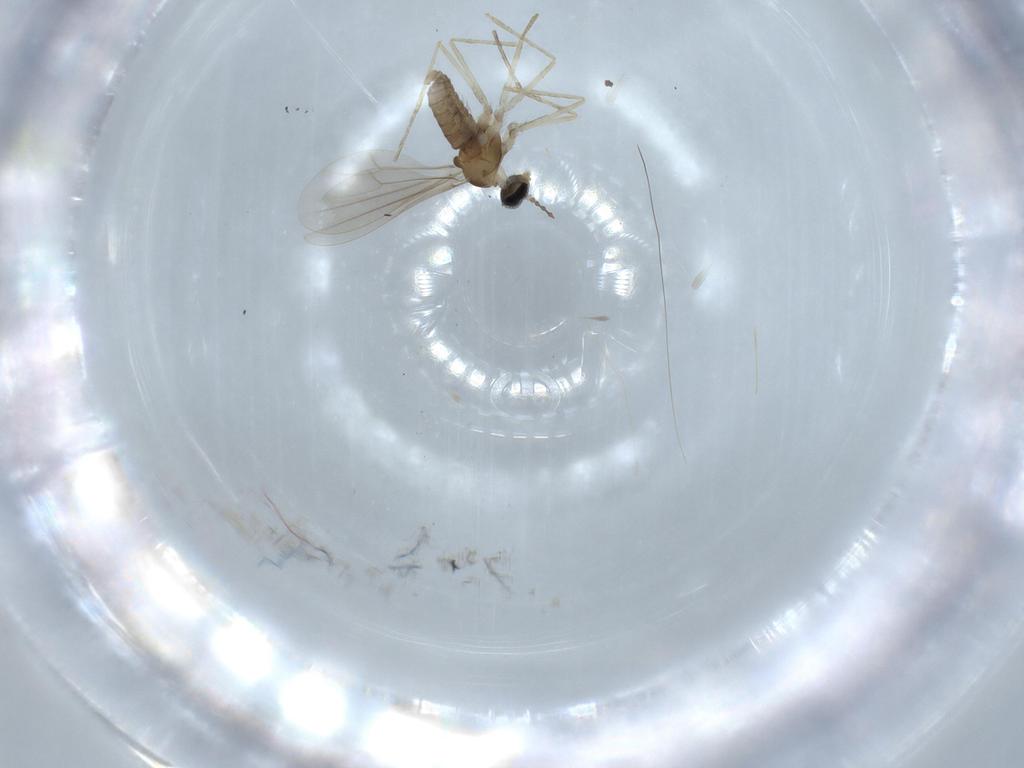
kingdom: Animalia
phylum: Arthropoda
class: Insecta
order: Diptera
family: Cecidomyiidae
